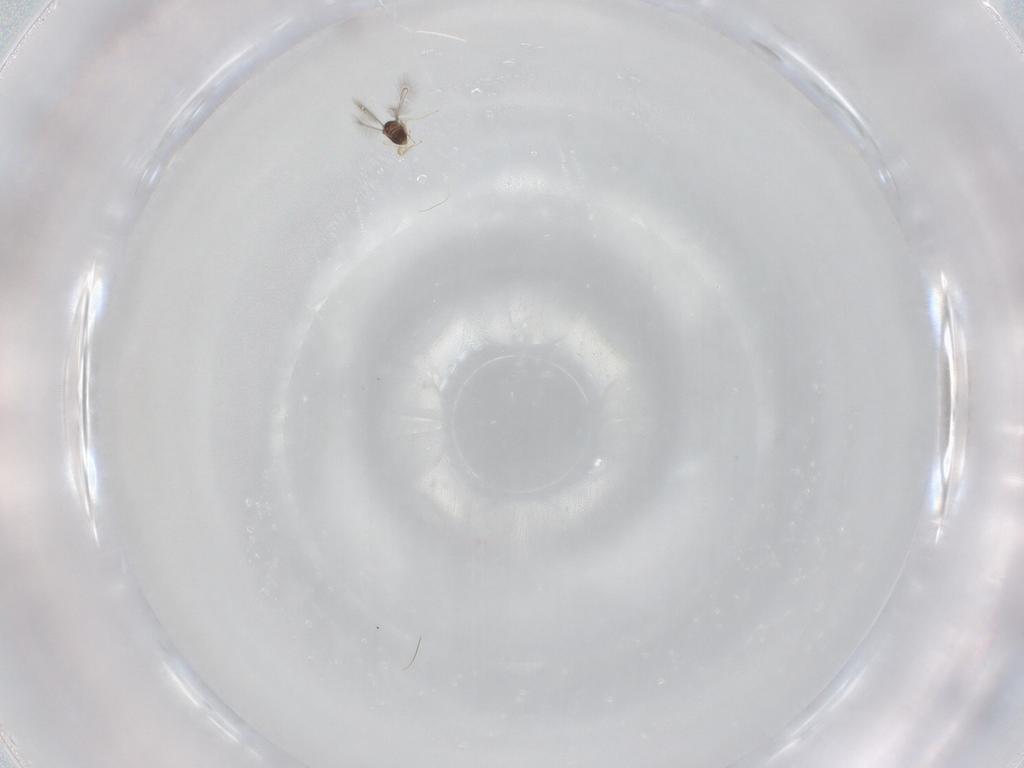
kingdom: Animalia
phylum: Arthropoda
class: Insecta
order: Hymenoptera
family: Mymaridae
